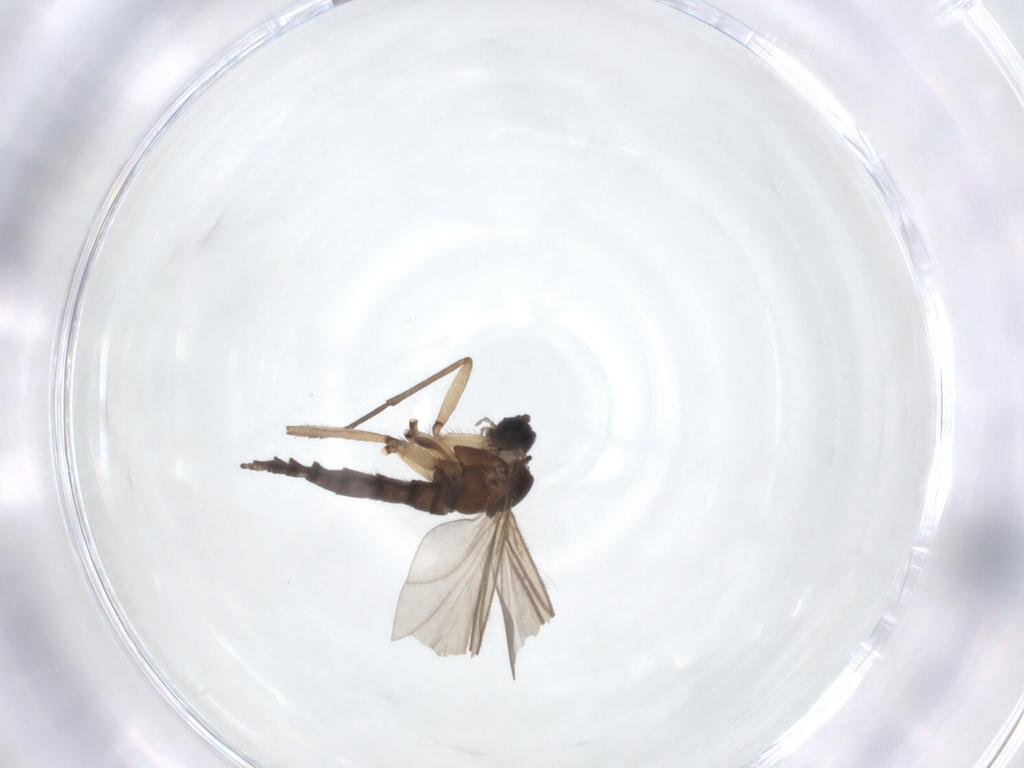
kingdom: Animalia
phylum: Arthropoda
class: Insecta
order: Diptera
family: Sciaridae
